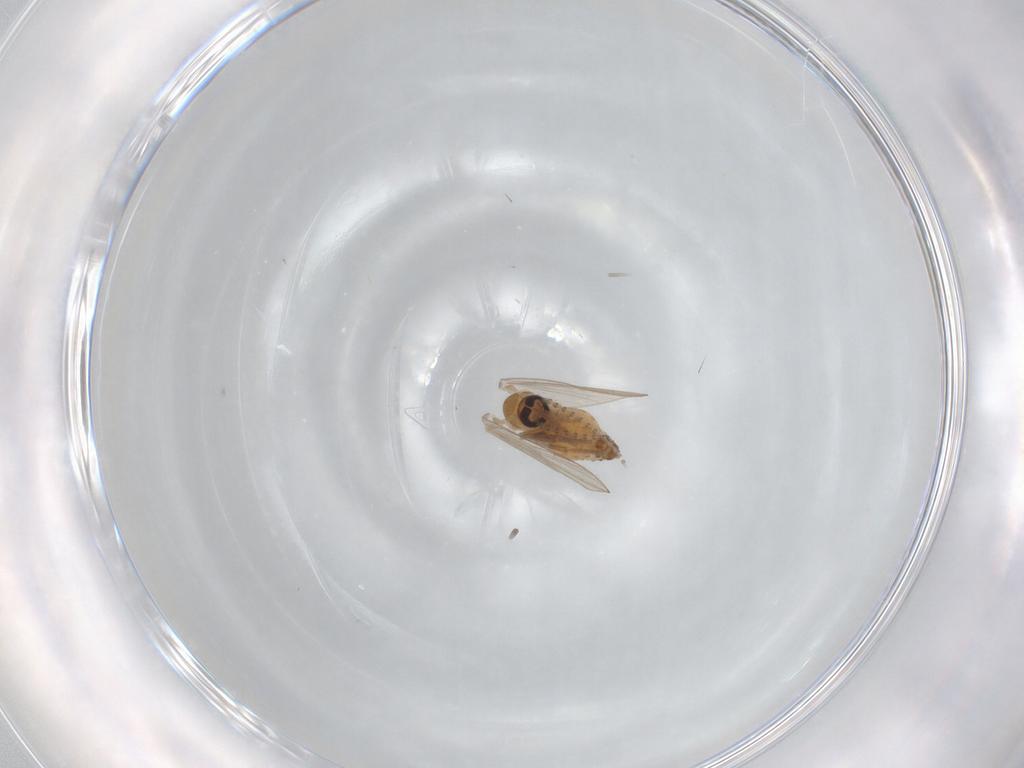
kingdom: Animalia
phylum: Arthropoda
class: Insecta
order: Diptera
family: Psychodidae
